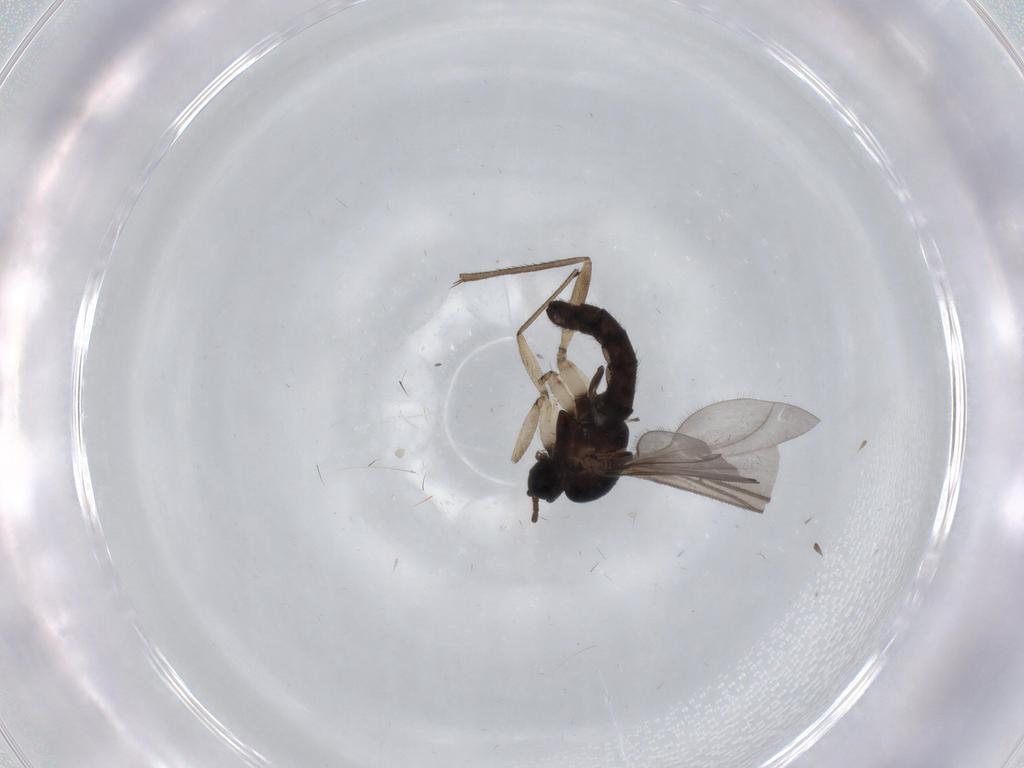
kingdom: Animalia
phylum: Arthropoda
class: Insecta
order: Diptera
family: Sciaridae
